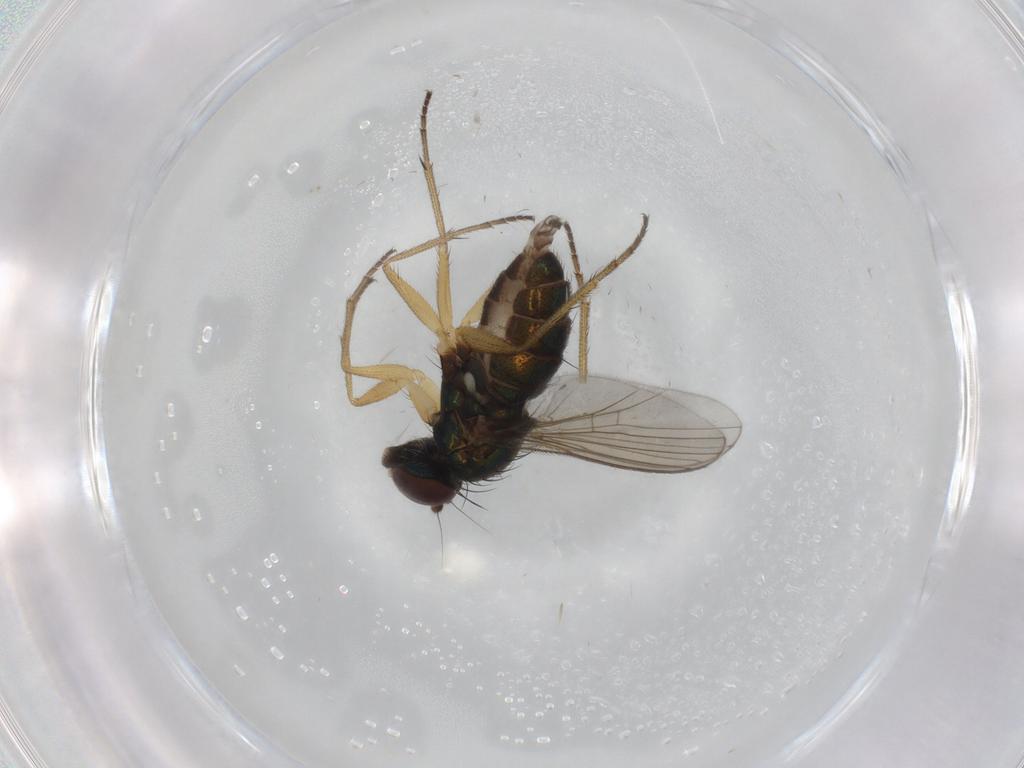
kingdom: Animalia
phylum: Arthropoda
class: Insecta
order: Diptera
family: Dolichopodidae
